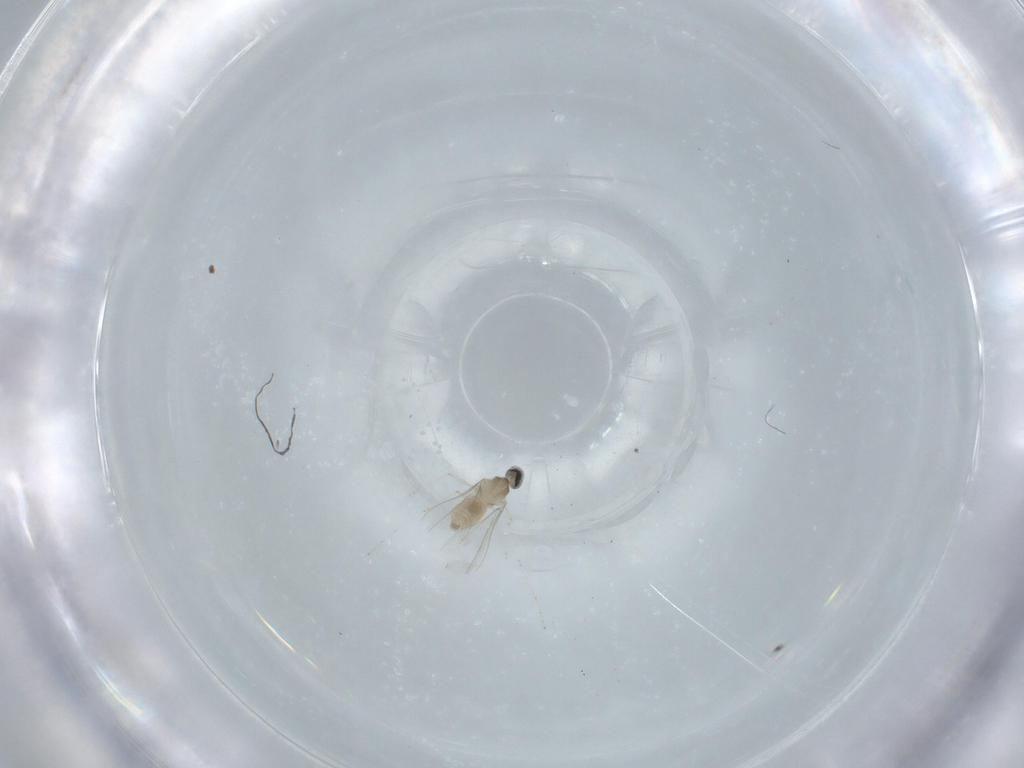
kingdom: Animalia
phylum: Arthropoda
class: Insecta
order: Diptera
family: Cecidomyiidae
